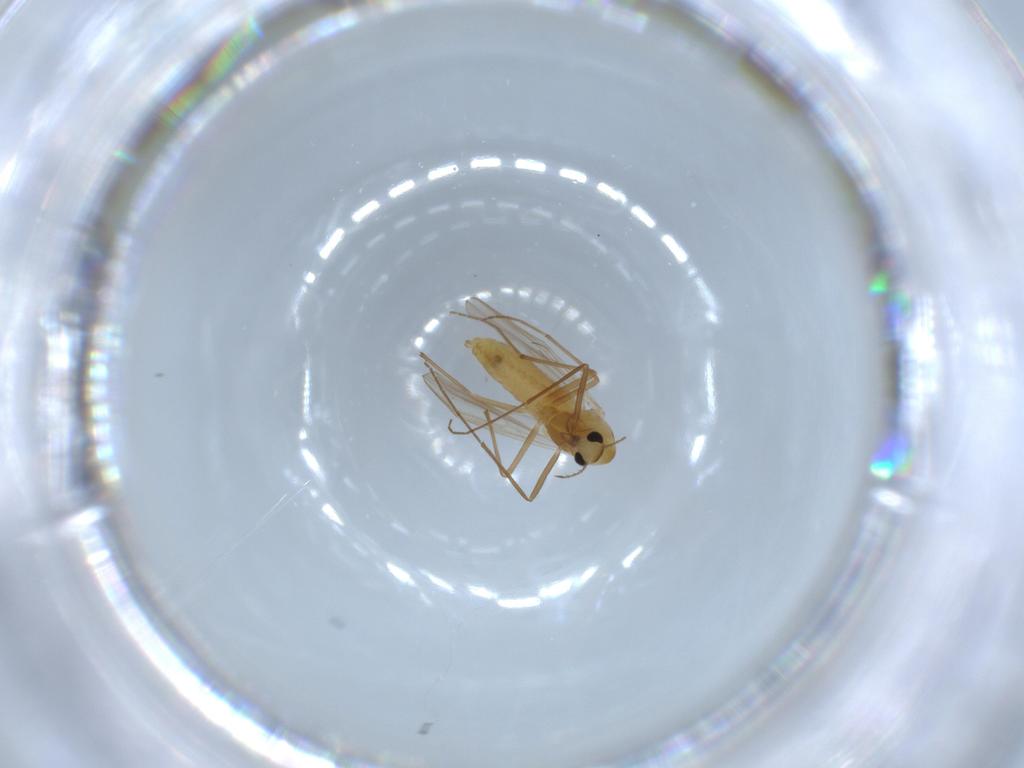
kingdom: Animalia
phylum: Arthropoda
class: Insecta
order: Diptera
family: Chironomidae
